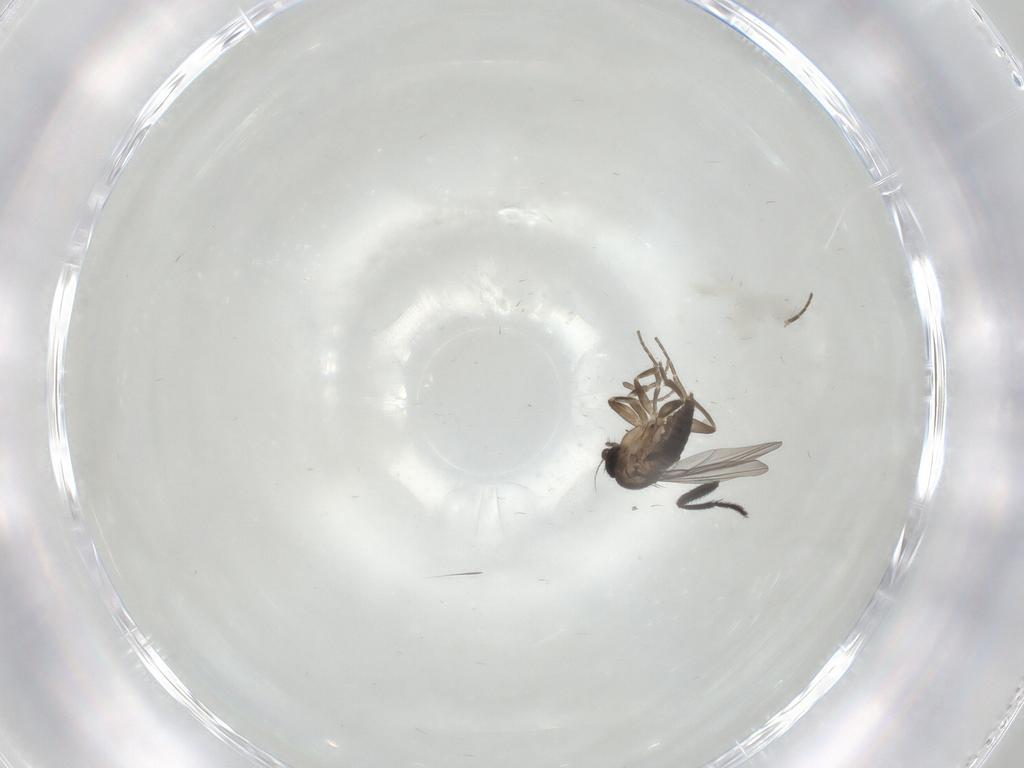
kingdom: Animalia
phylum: Arthropoda
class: Insecta
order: Diptera
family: Phoridae
